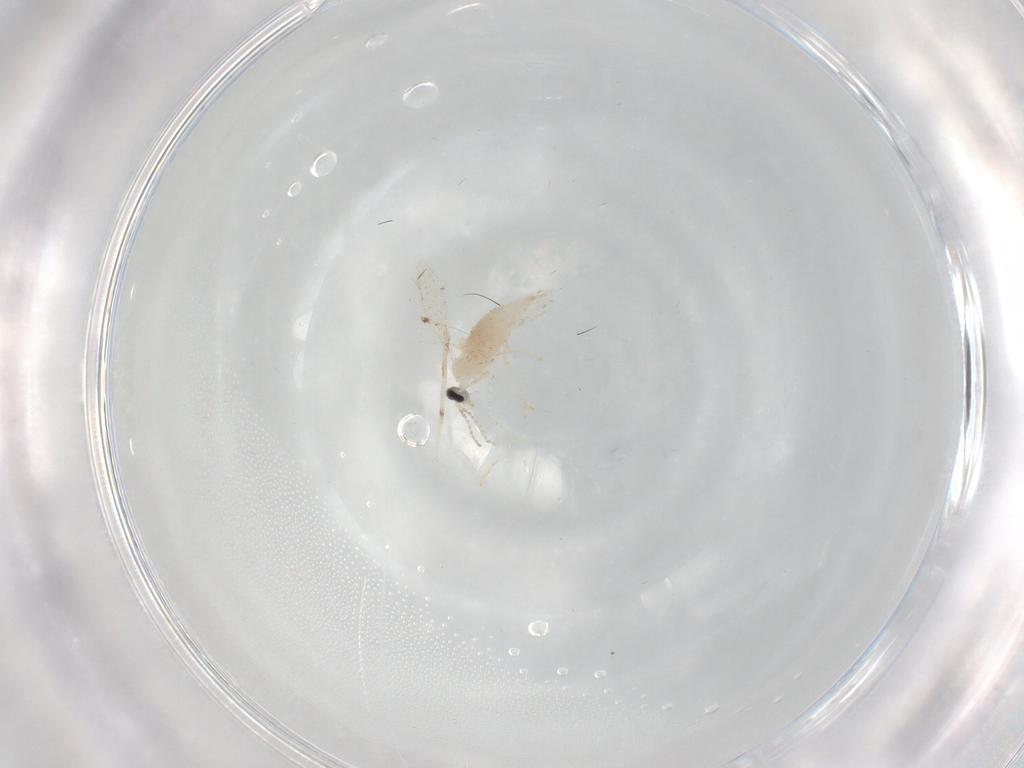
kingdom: Animalia
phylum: Arthropoda
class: Insecta
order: Diptera
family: Cecidomyiidae
